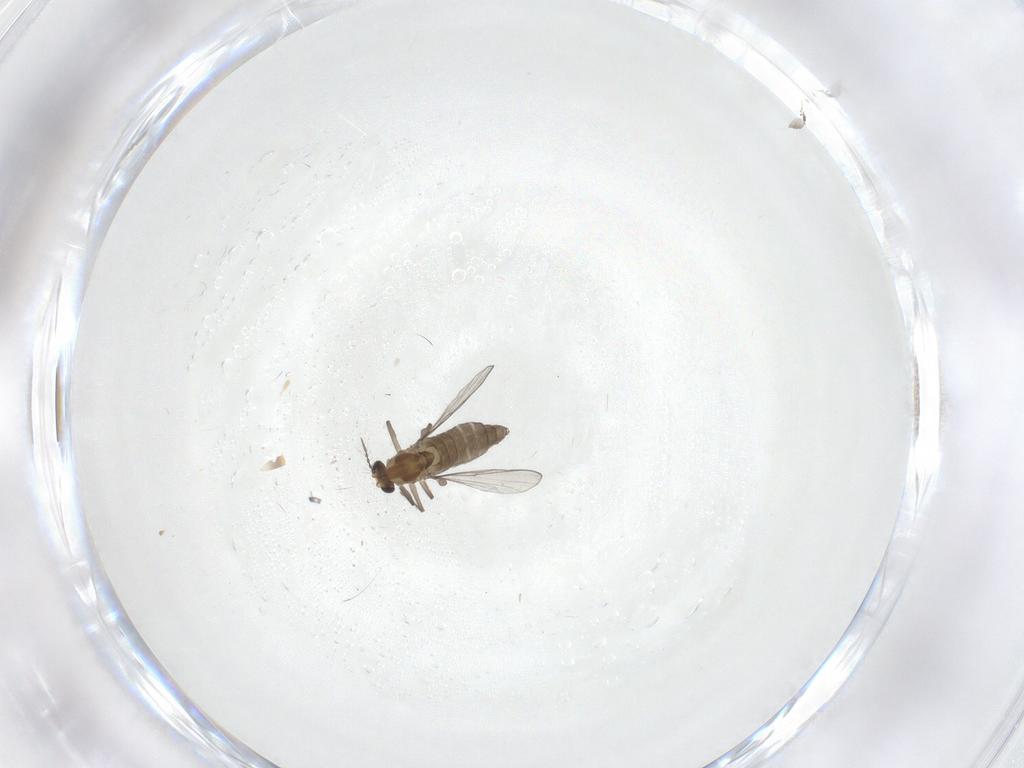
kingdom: Animalia
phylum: Arthropoda
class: Insecta
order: Diptera
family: Chironomidae
